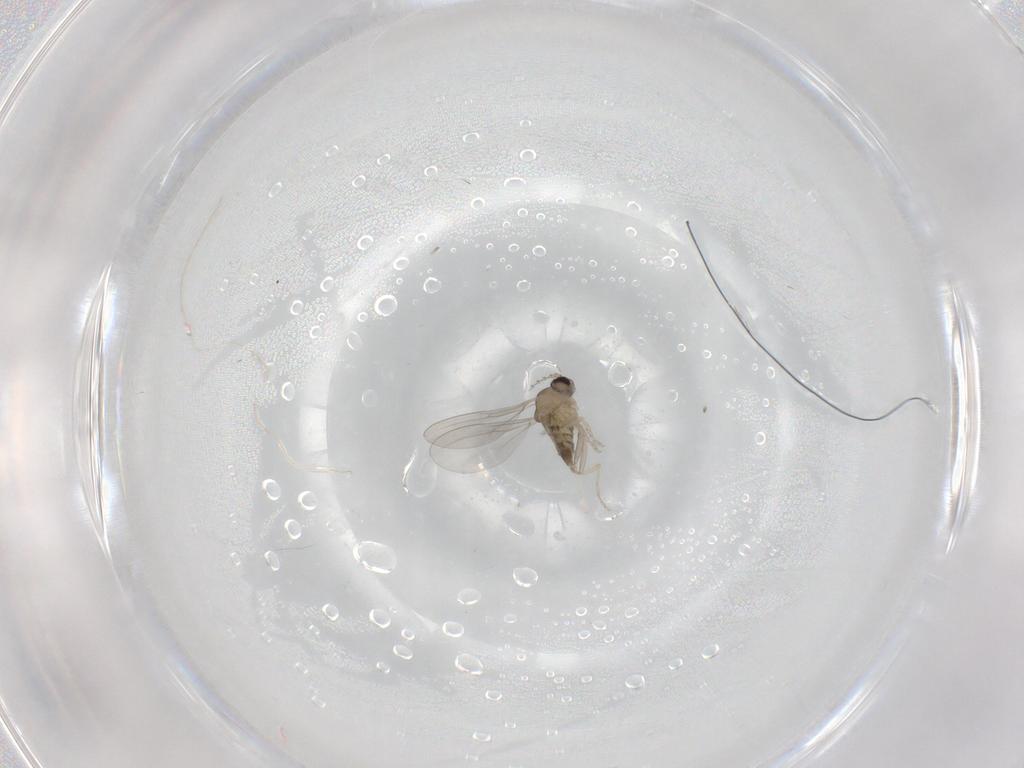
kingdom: Animalia
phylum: Arthropoda
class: Insecta
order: Diptera
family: Cecidomyiidae
